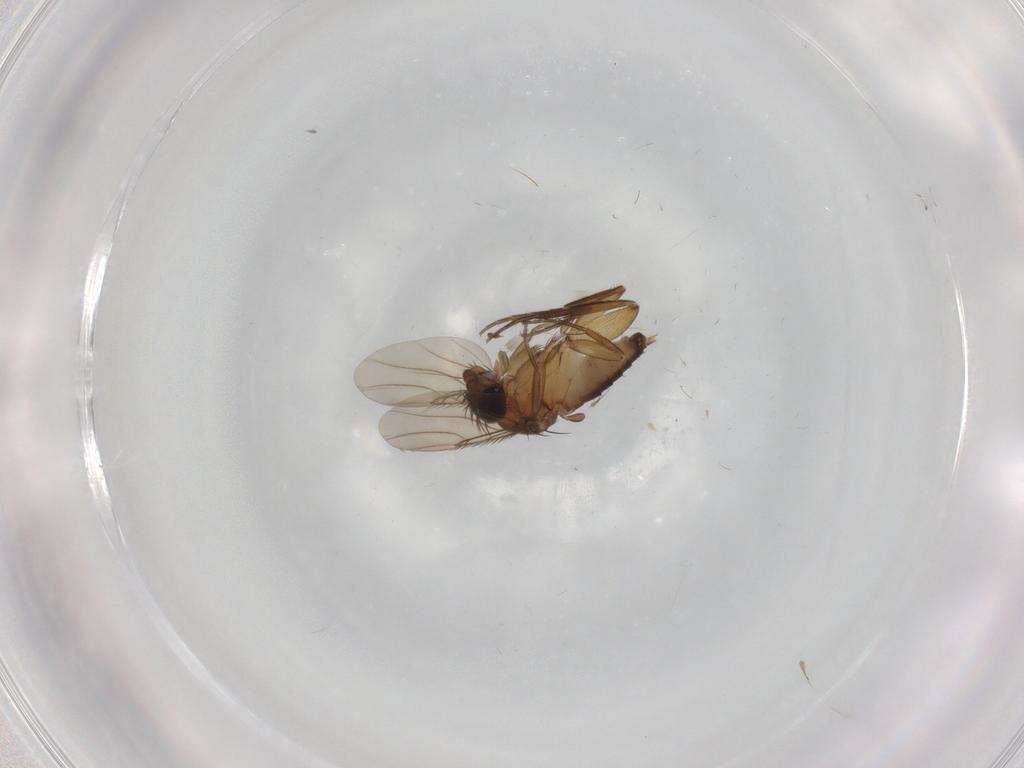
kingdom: Animalia
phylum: Arthropoda
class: Insecta
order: Diptera
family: Phoridae
